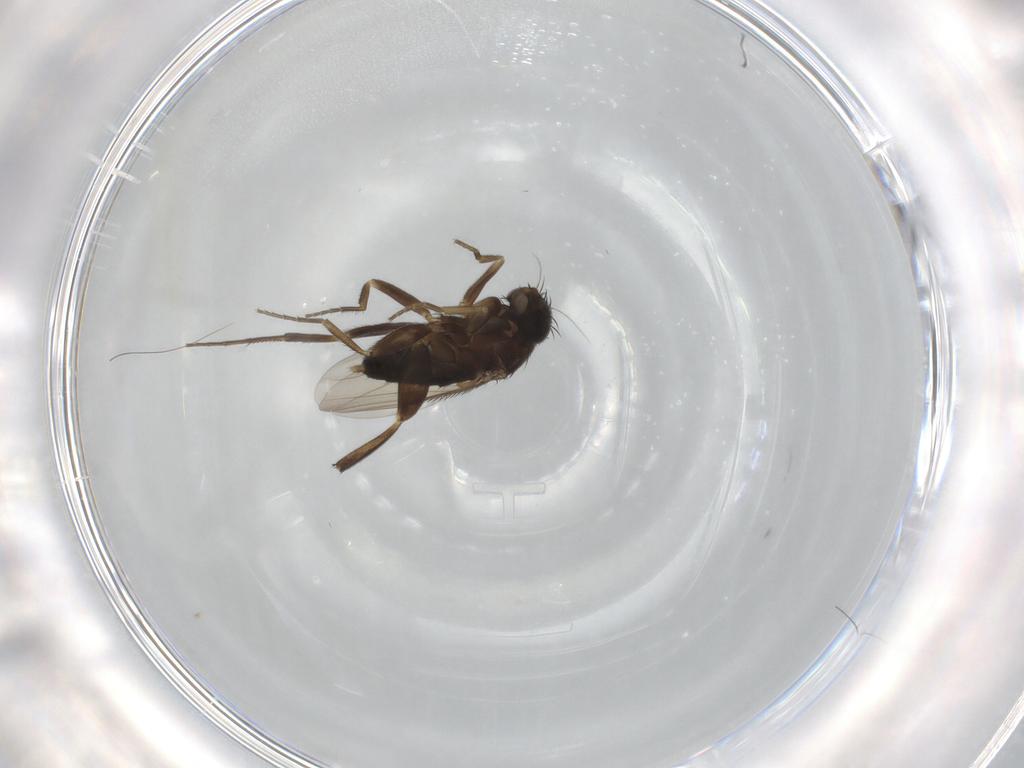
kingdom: Animalia
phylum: Arthropoda
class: Insecta
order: Diptera
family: Phoridae
